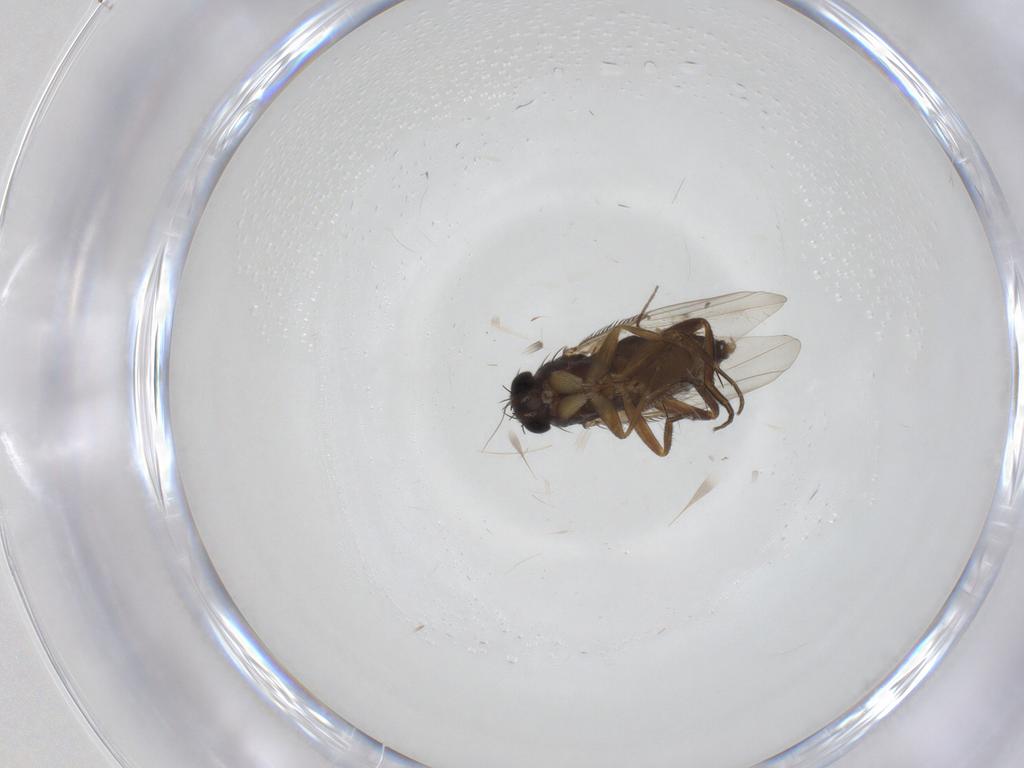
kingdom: Animalia
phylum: Arthropoda
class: Insecta
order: Diptera
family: Phoridae
